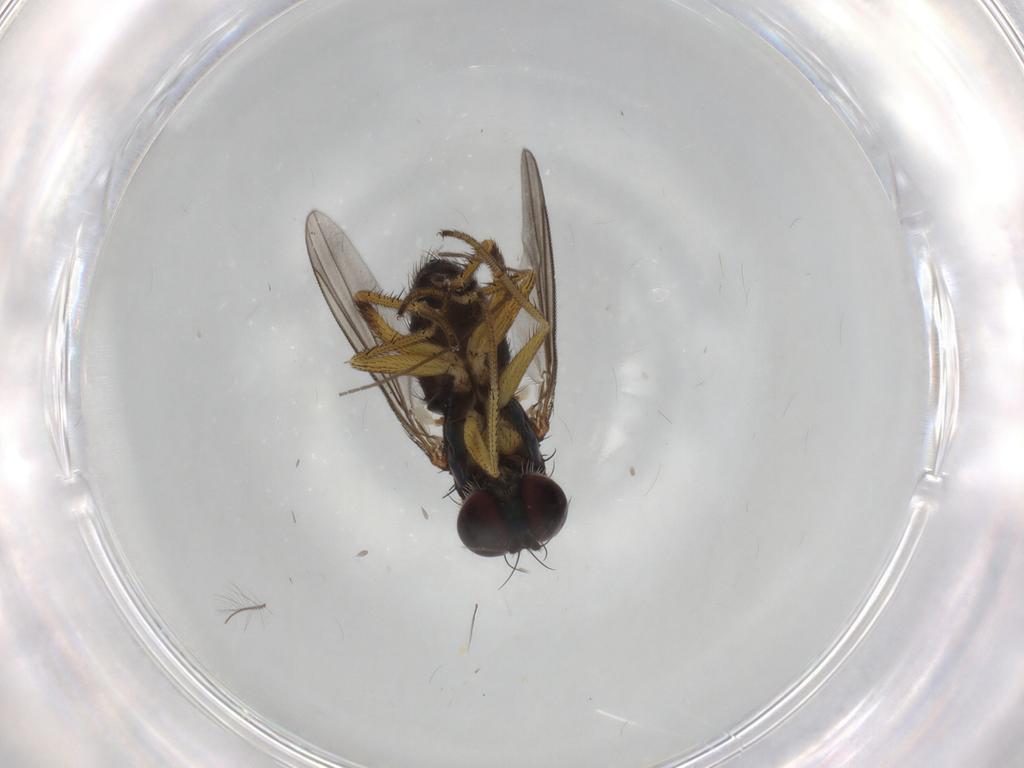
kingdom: Animalia
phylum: Arthropoda
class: Insecta
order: Diptera
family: Dolichopodidae
